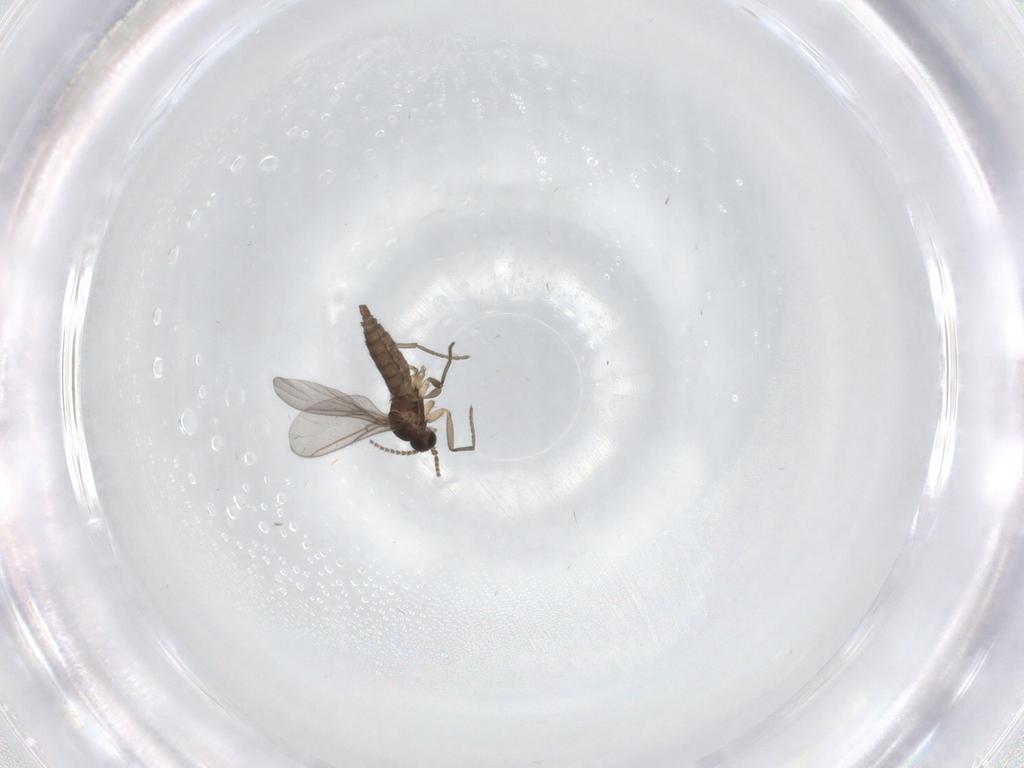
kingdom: Animalia
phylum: Arthropoda
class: Insecta
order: Diptera
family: Sciaridae
